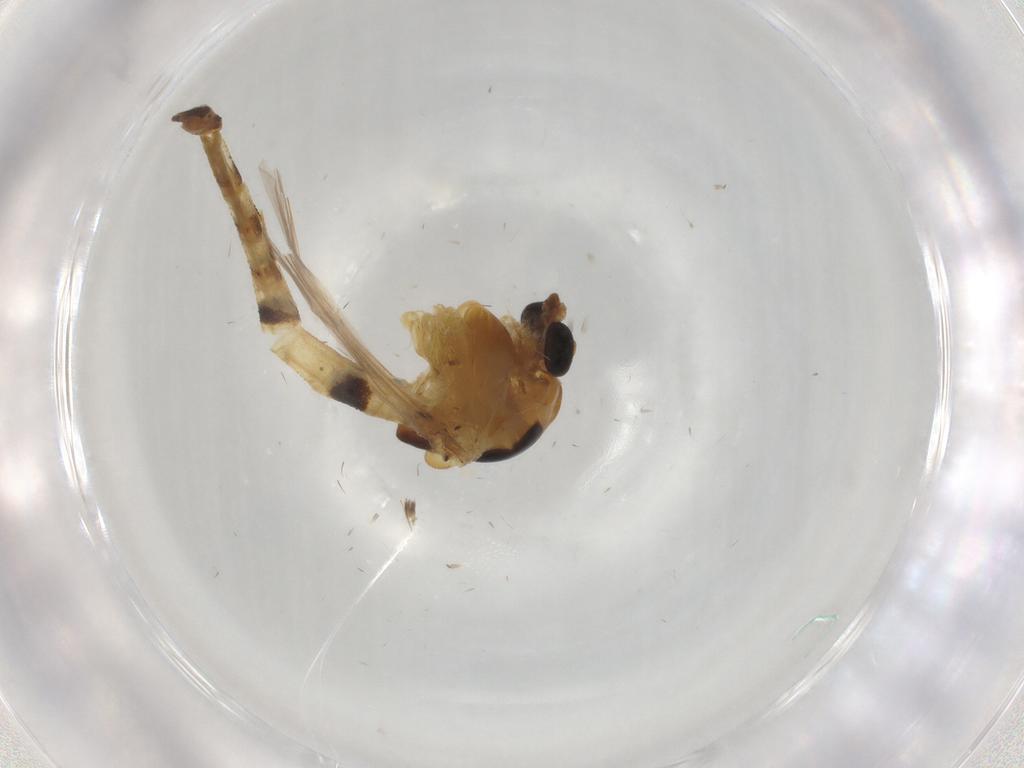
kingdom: Animalia
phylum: Arthropoda
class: Insecta
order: Diptera
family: Chironomidae
